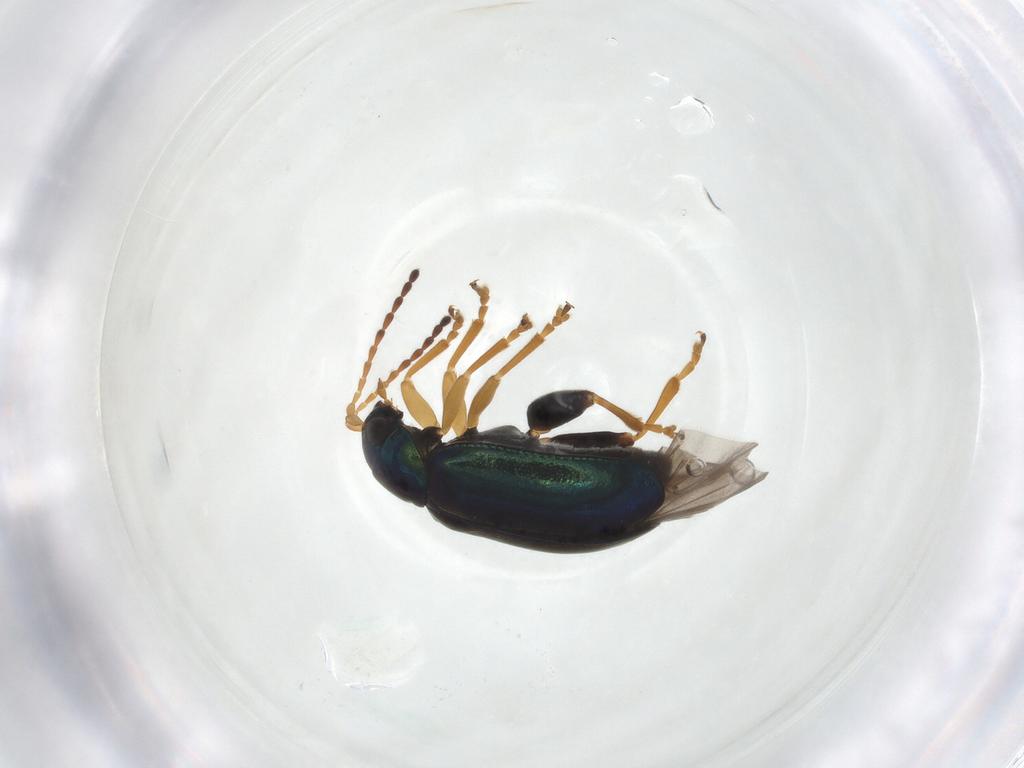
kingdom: Animalia
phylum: Arthropoda
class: Insecta
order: Coleoptera
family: Chrysomelidae
